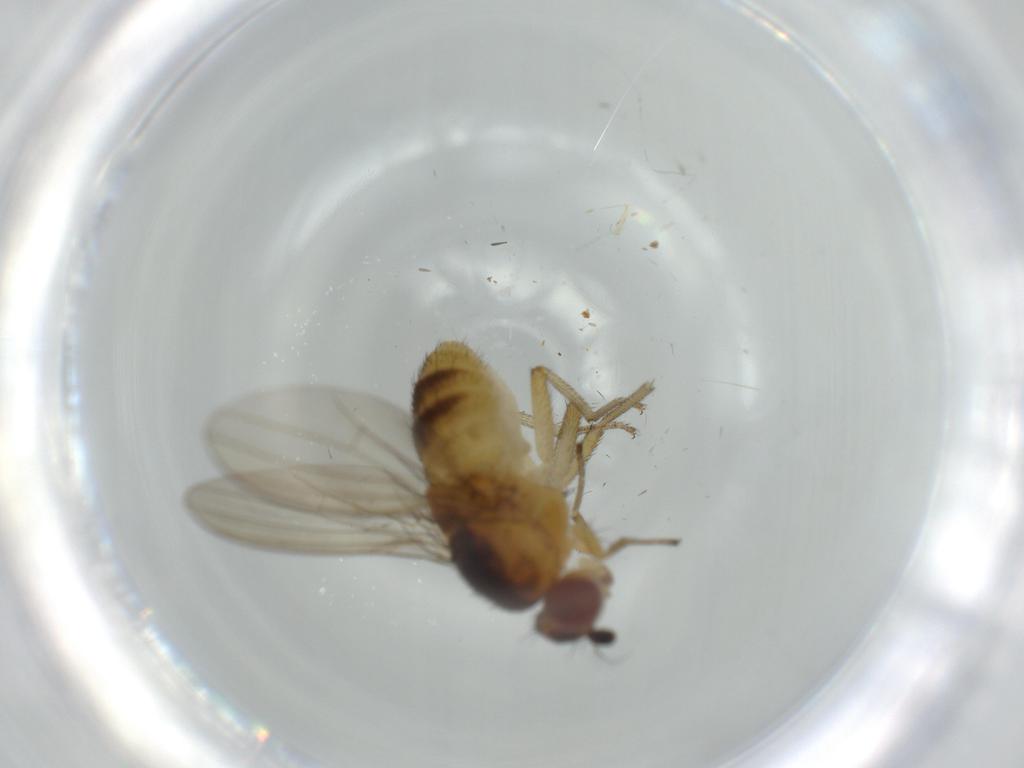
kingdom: Animalia
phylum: Arthropoda
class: Insecta
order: Diptera
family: Lauxaniidae
